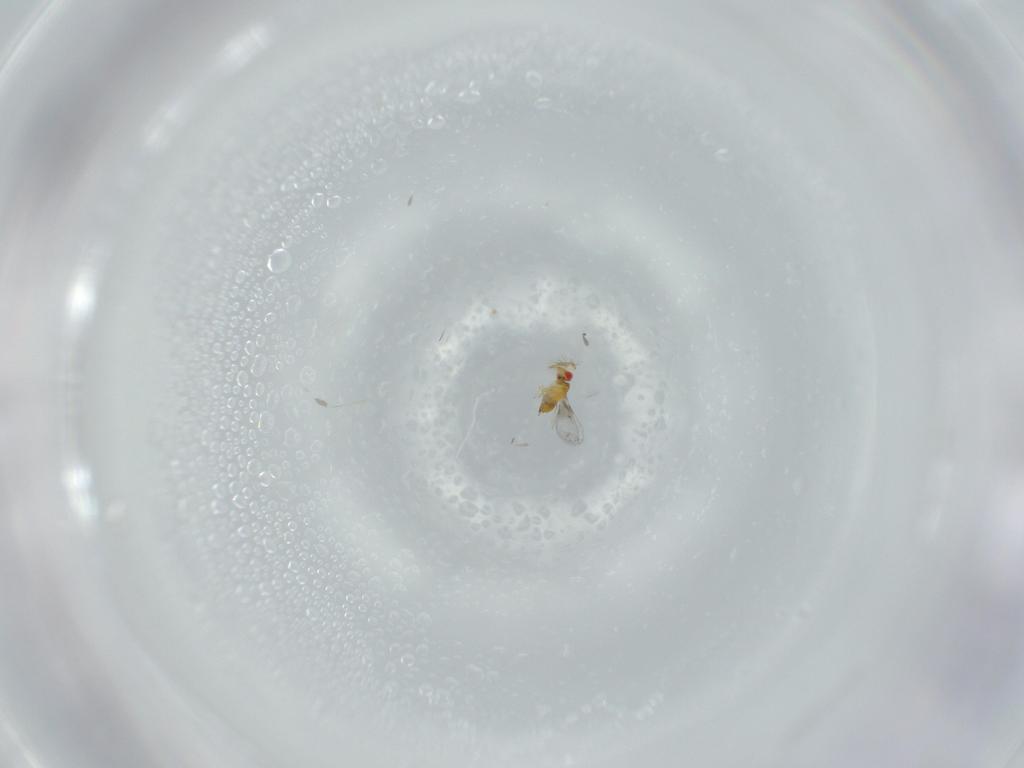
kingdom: Animalia
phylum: Arthropoda
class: Insecta
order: Hymenoptera
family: Trichogrammatidae
